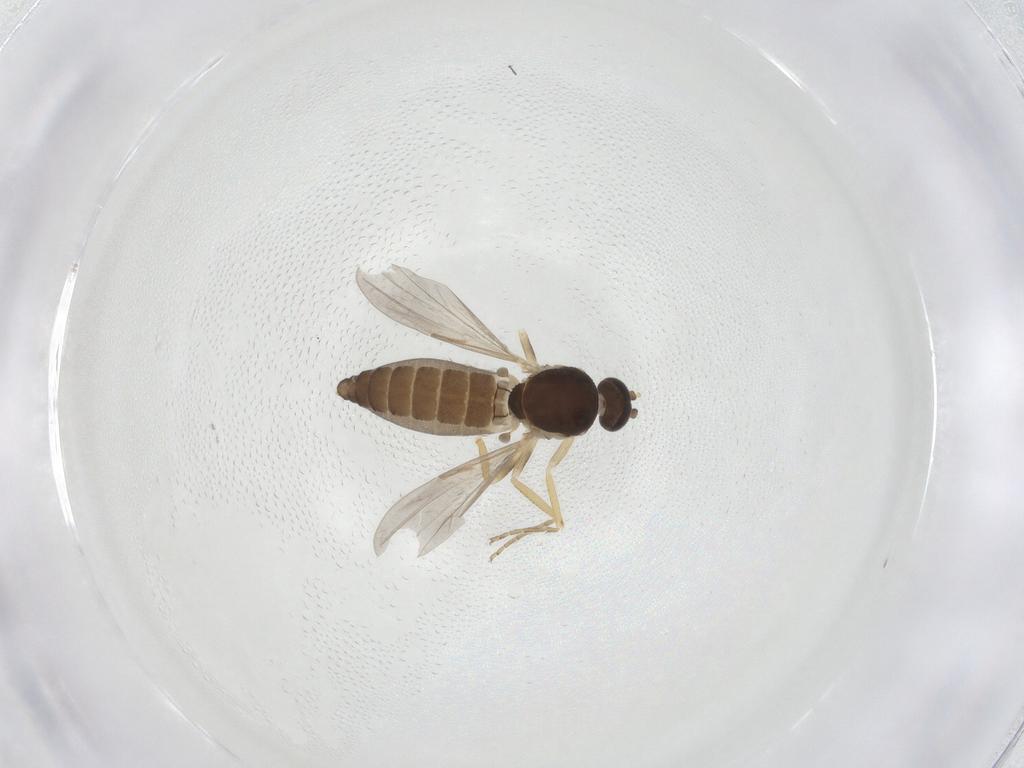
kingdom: Animalia
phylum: Arthropoda
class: Insecta
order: Diptera
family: Ceratopogonidae
